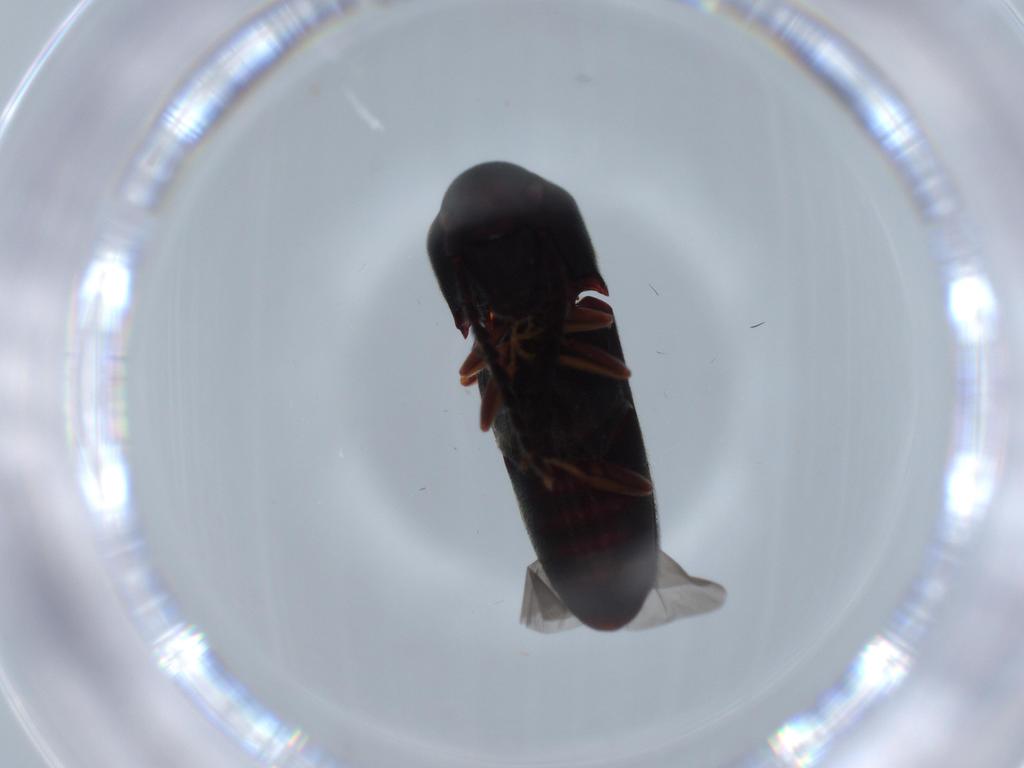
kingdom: Animalia
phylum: Arthropoda
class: Insecta
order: Coleoptera
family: Eucnemidae
